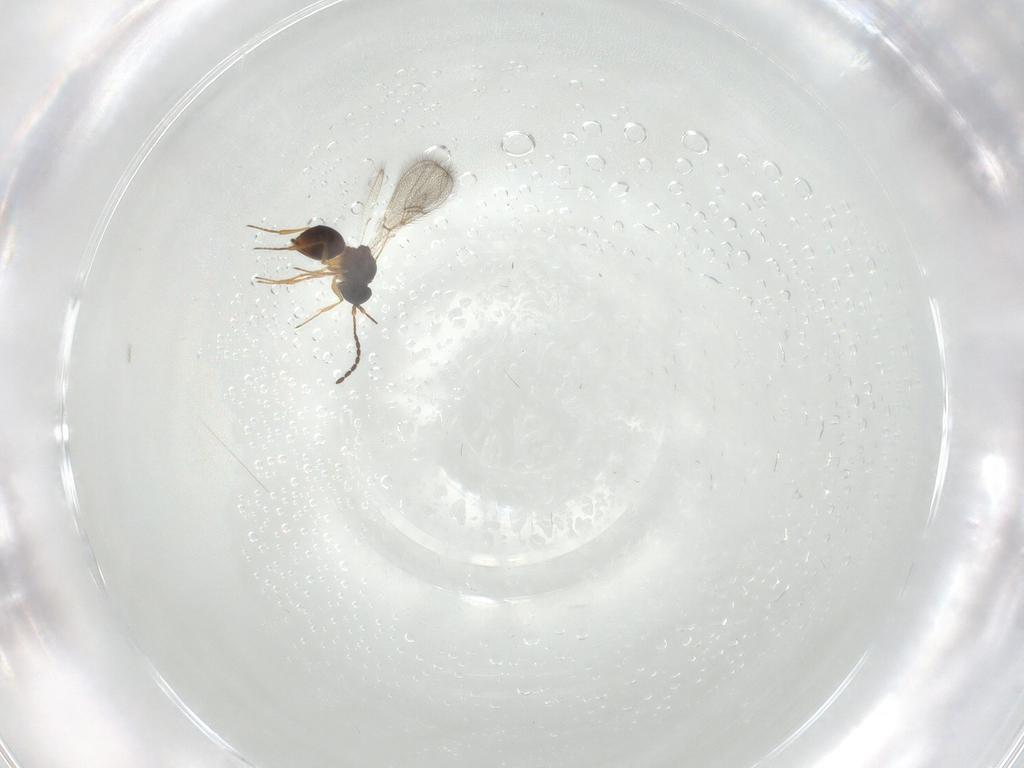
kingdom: Animalia
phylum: Arthropoda
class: Insecta
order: Hymenoptera
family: Figitidae
